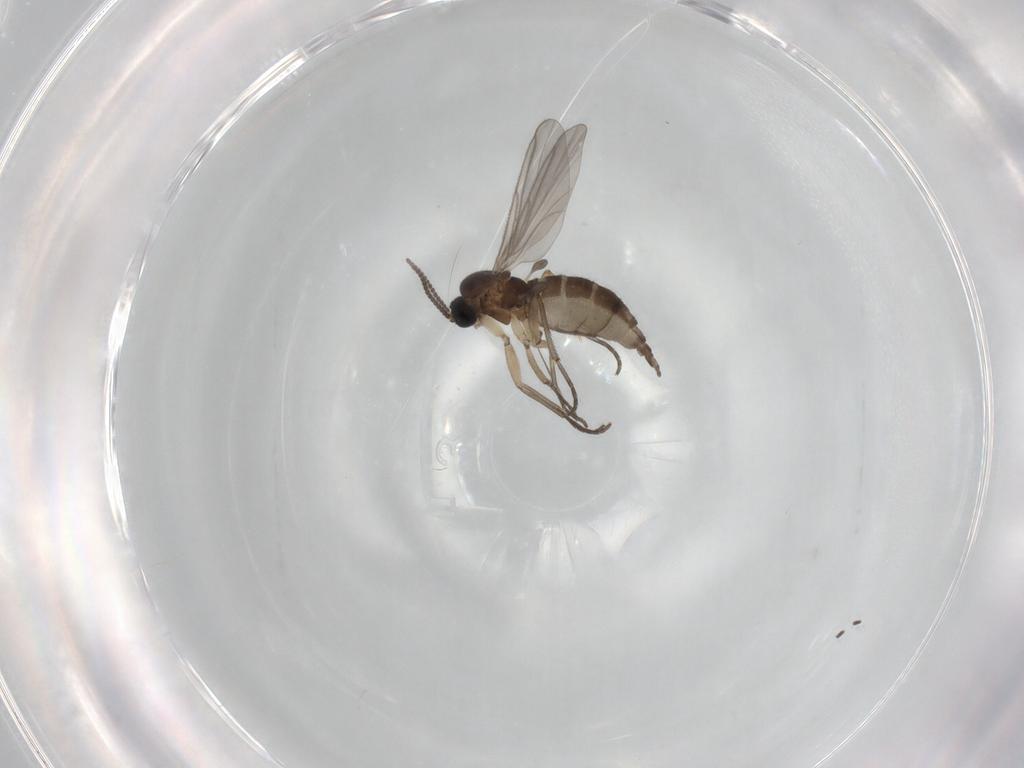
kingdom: Animalia
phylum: Arthropoda
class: Insecta
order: Diptera
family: Sciaridae
